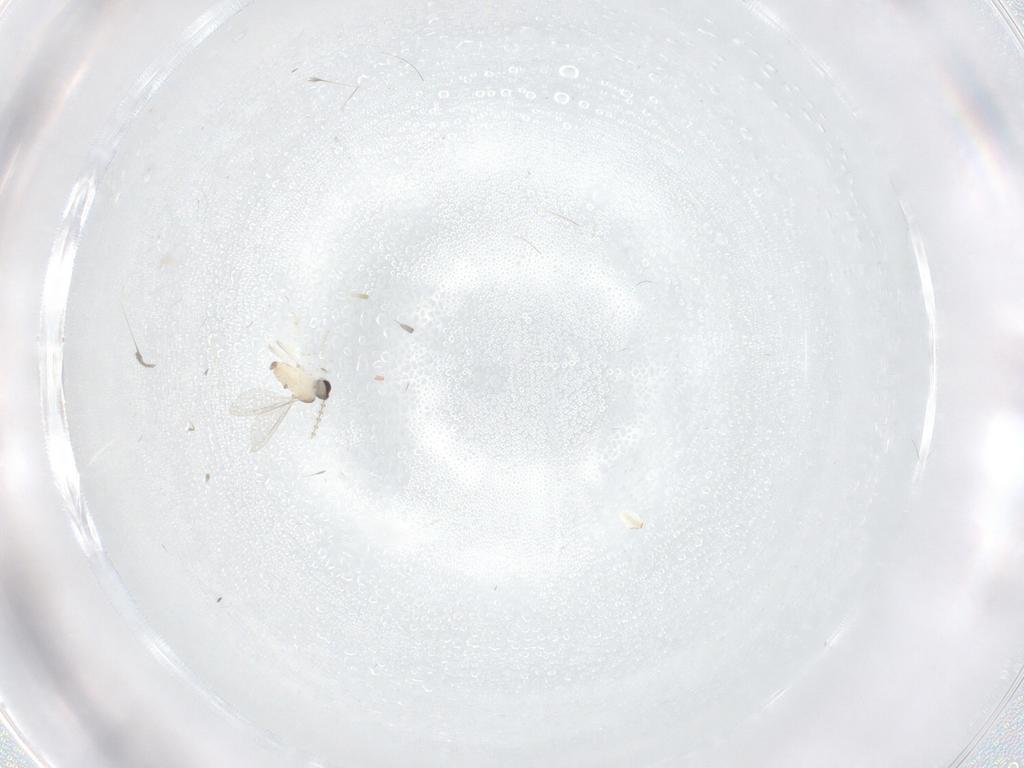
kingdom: Animalia
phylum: Arthropoda
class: Insecta
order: Diptera
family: Cecidomyiidae
